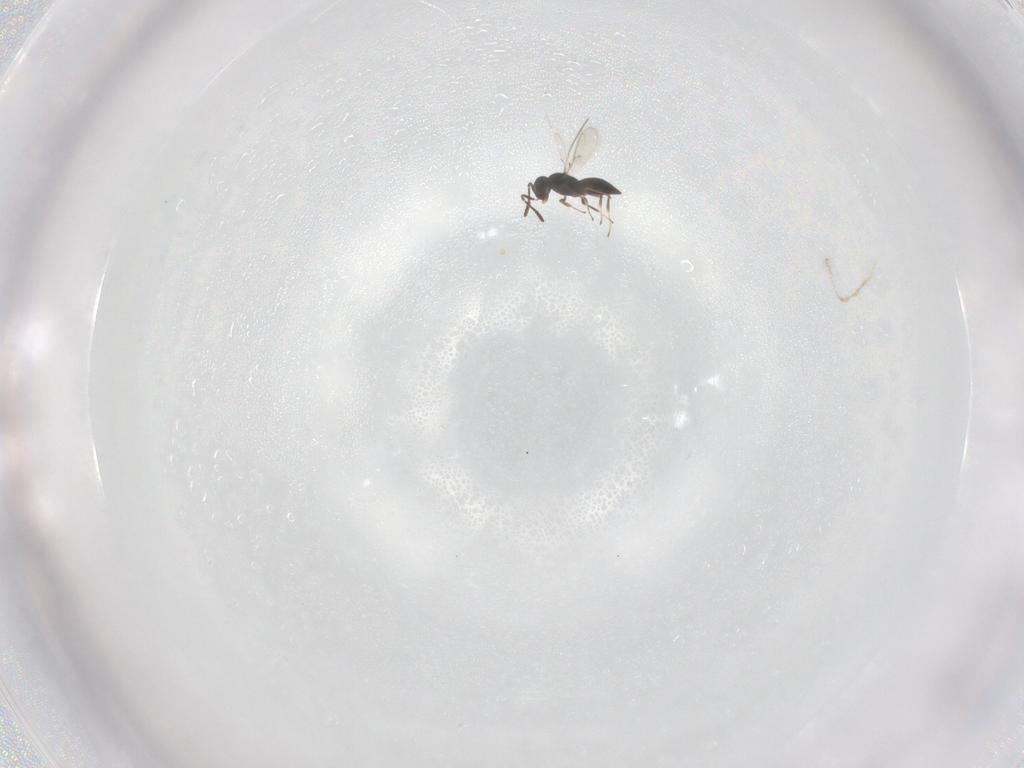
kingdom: Animalia
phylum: Arthropoda
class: Insecta
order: Hymenoptera
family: Scelionidae
